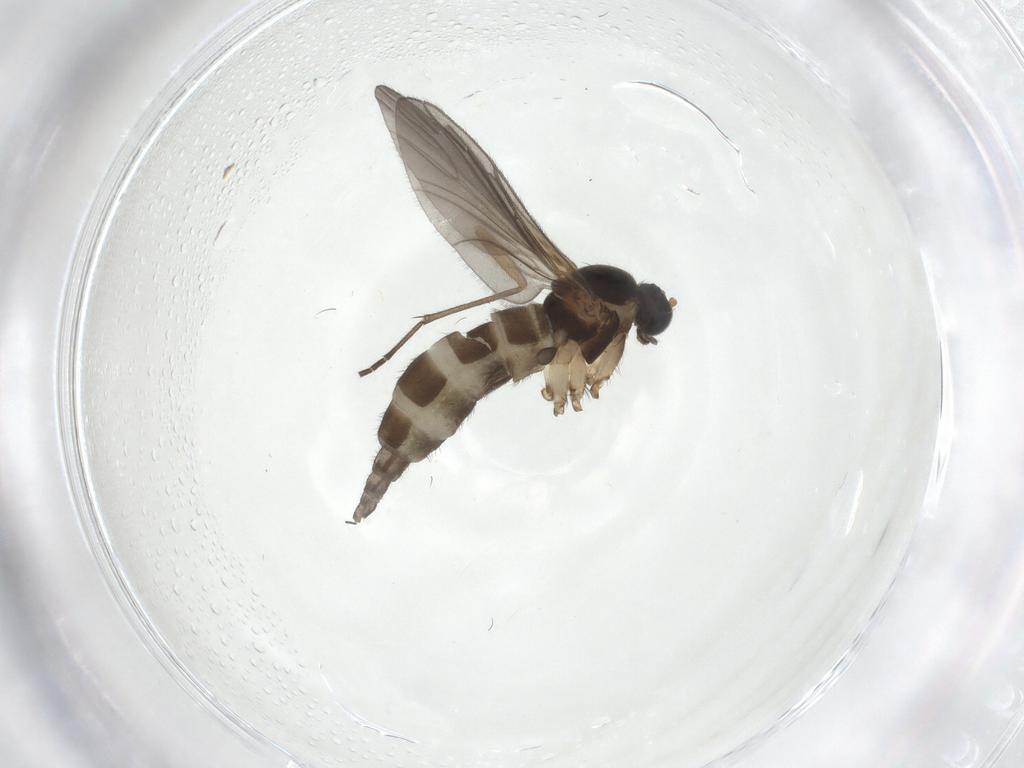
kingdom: Animalia
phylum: Arthropoda
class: Insecta
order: Diptera
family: Sciaridae
